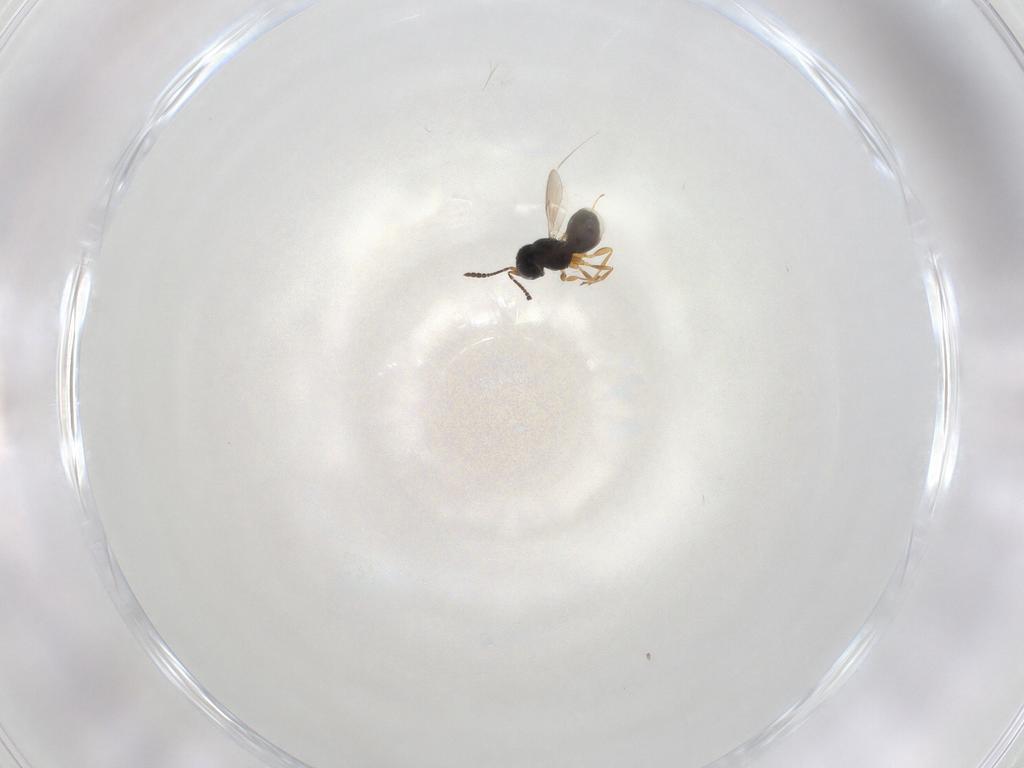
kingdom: Animalia
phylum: Arthropoda
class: Insecta
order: Hymenoptera
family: Scelionidae
